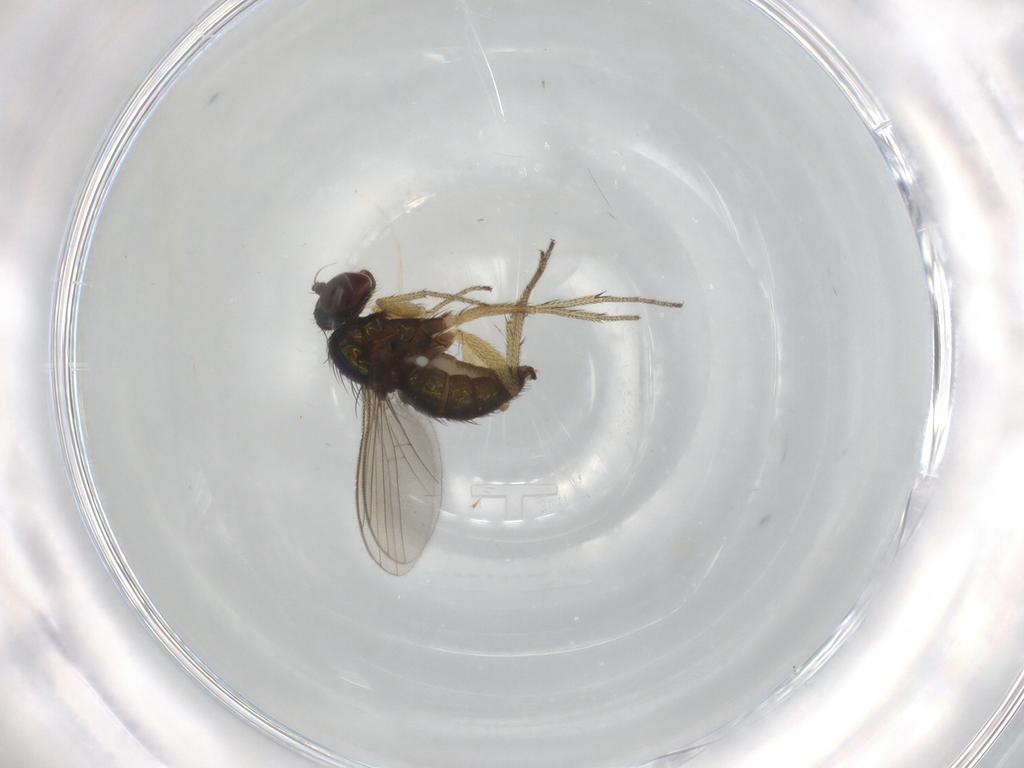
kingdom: Animalia
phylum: Arthropoda
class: Insecta
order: Diptera
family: Dolichopodidae
